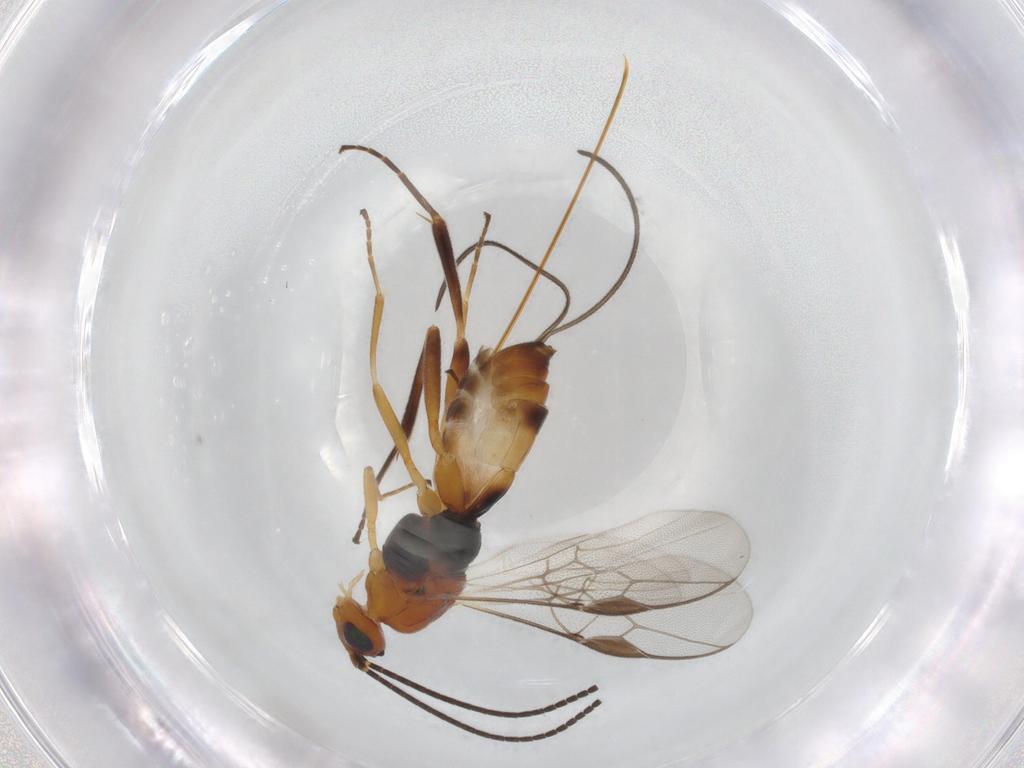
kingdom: Animalia
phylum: Arthropoda
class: Insecta
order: Hymenoptera
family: Braconidae
